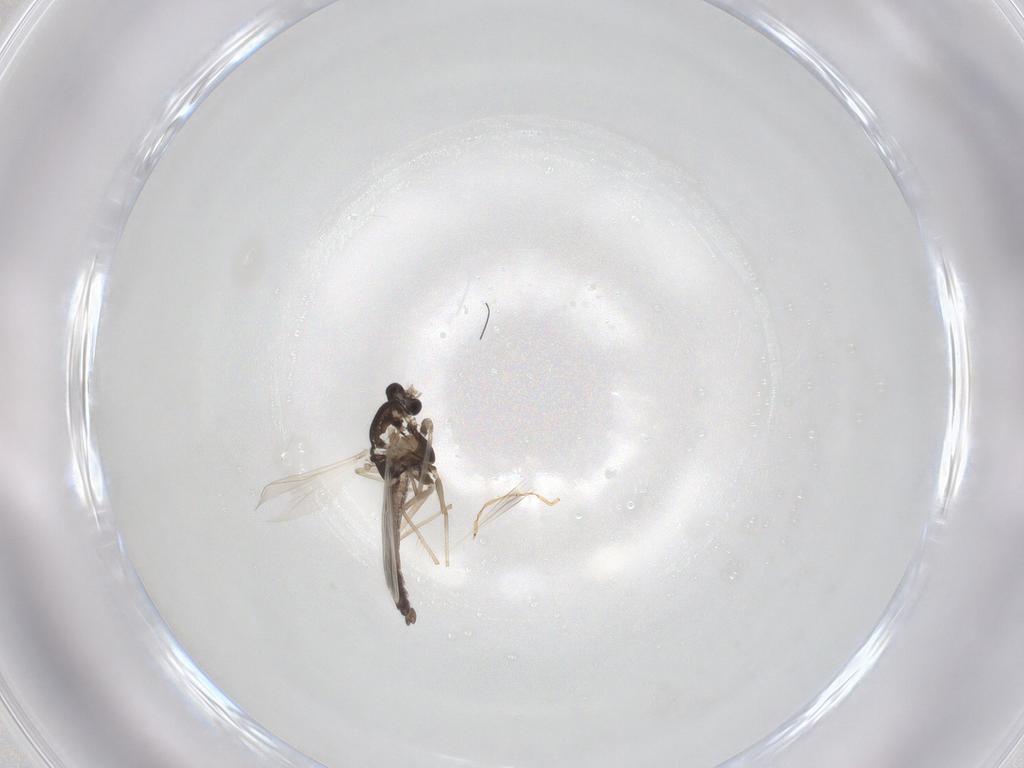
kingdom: Animalia
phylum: Arthropoda
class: Insecta
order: Diptera
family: Chironomidae
